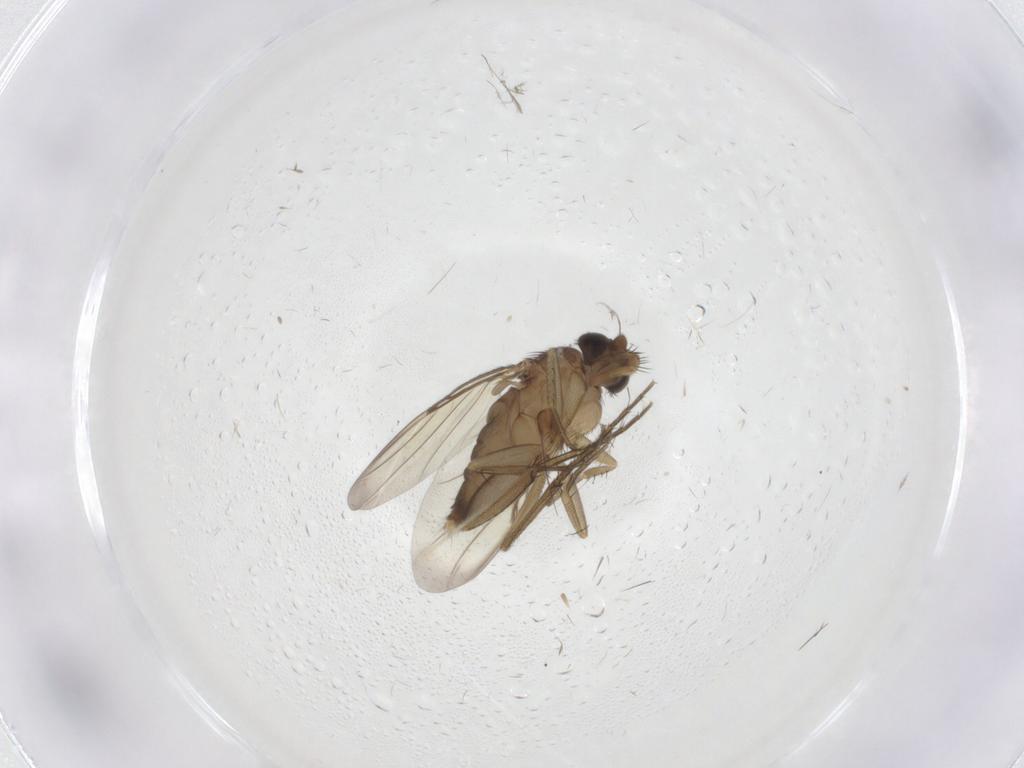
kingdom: Animalia
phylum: Arthropoda
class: Insecta
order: Diptera
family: Phoridae
